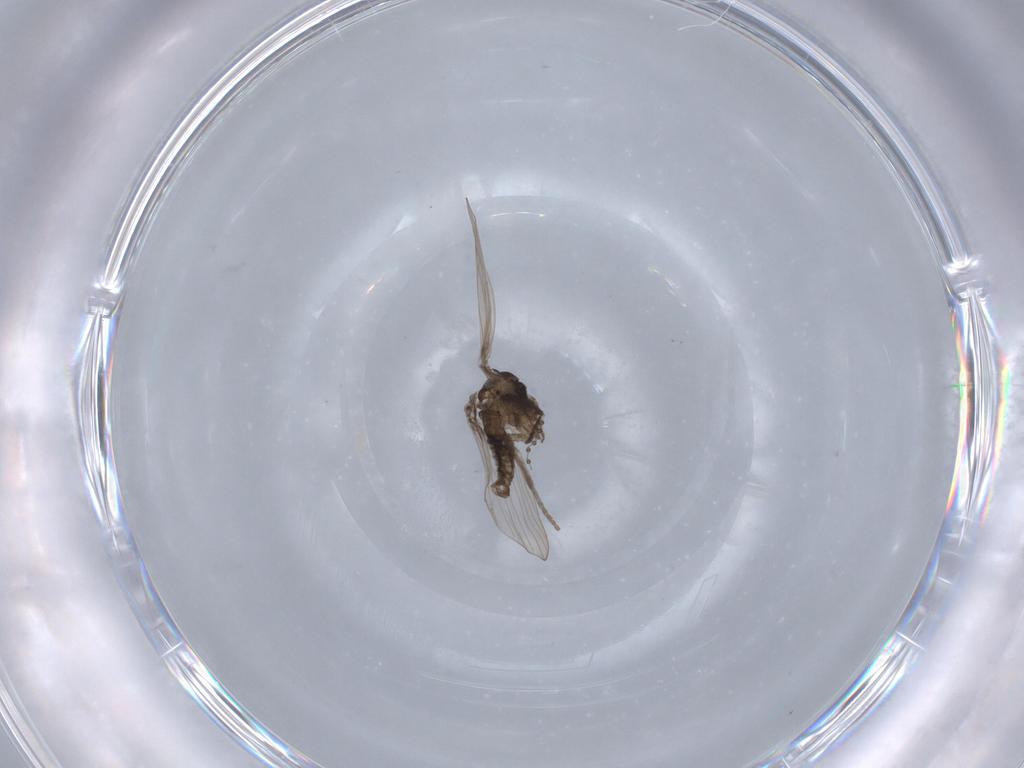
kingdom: Animalia
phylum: Arthropoda
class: Insecta
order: Diptera
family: Psychodidae
